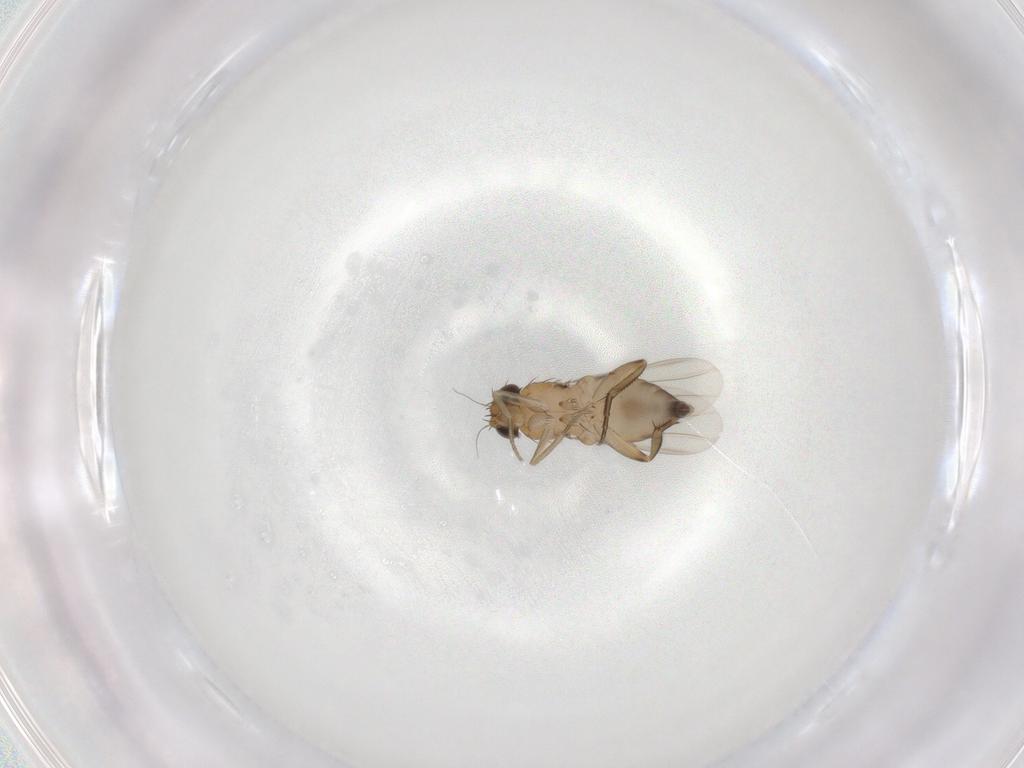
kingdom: Animalia
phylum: Arthropoda
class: Insecta
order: Diptera
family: Phoridae
